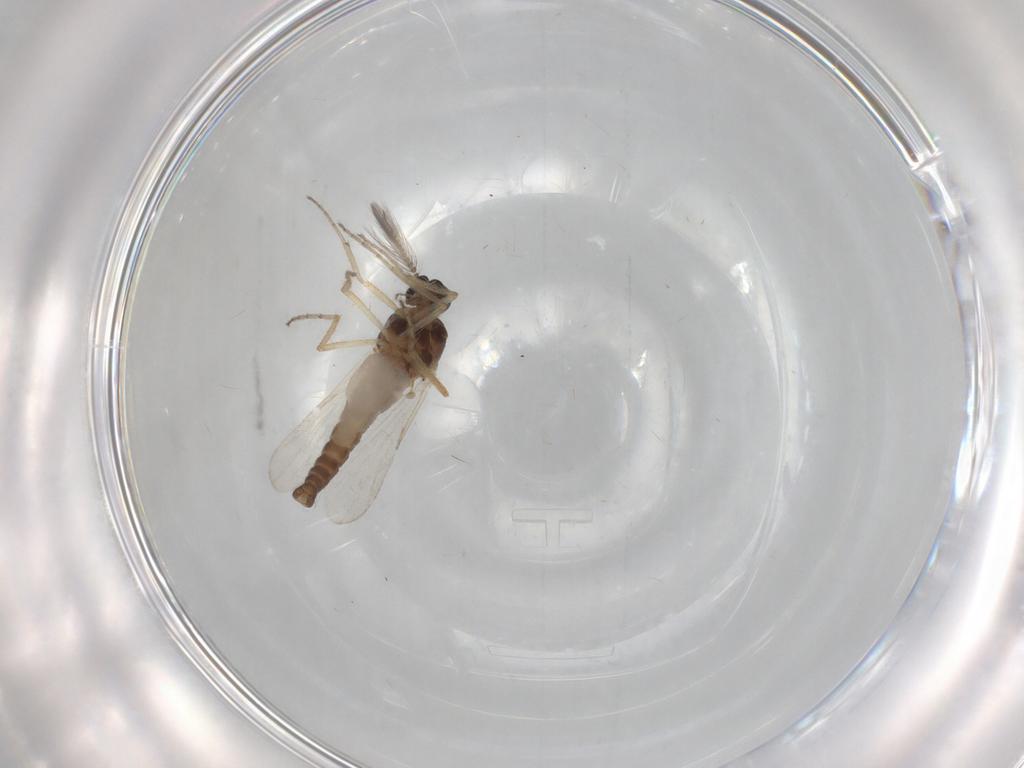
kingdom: Animalia
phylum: Arthropoda
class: Insecta
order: Diptera
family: Ceratopogonidae
